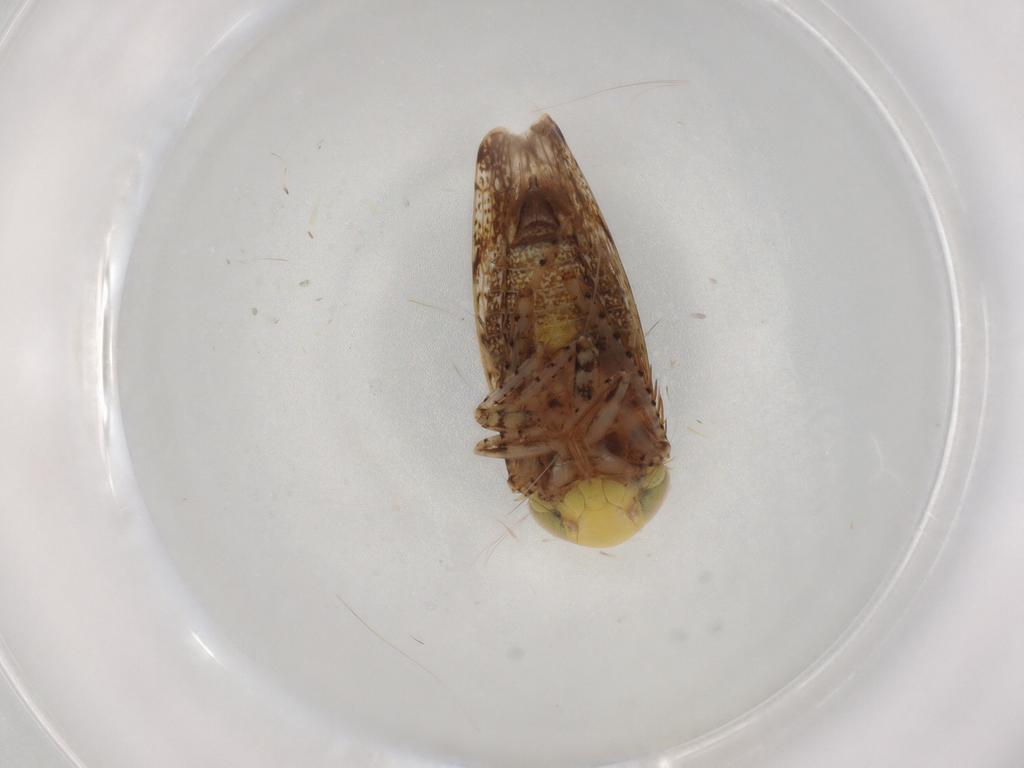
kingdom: Animalia
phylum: Arthropoda
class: Insecta
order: Hemiptera
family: Cicadellidae
